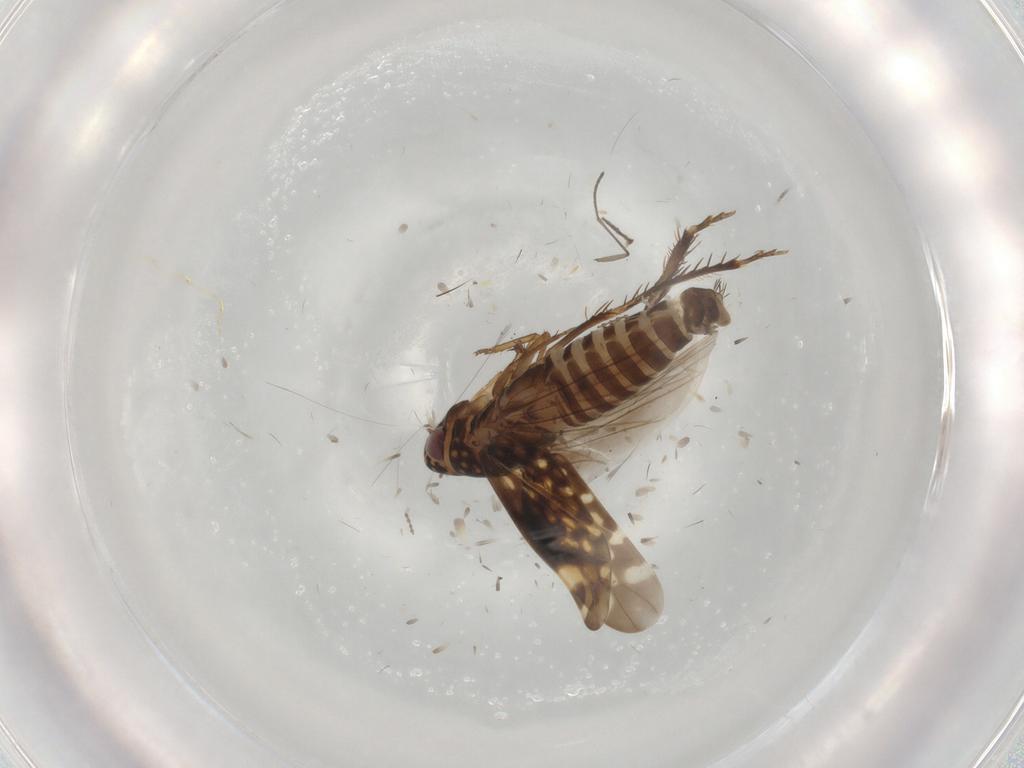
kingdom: Animalia
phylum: Arthropoda
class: Insecta
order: Hemiptera
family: Cicadellidae
